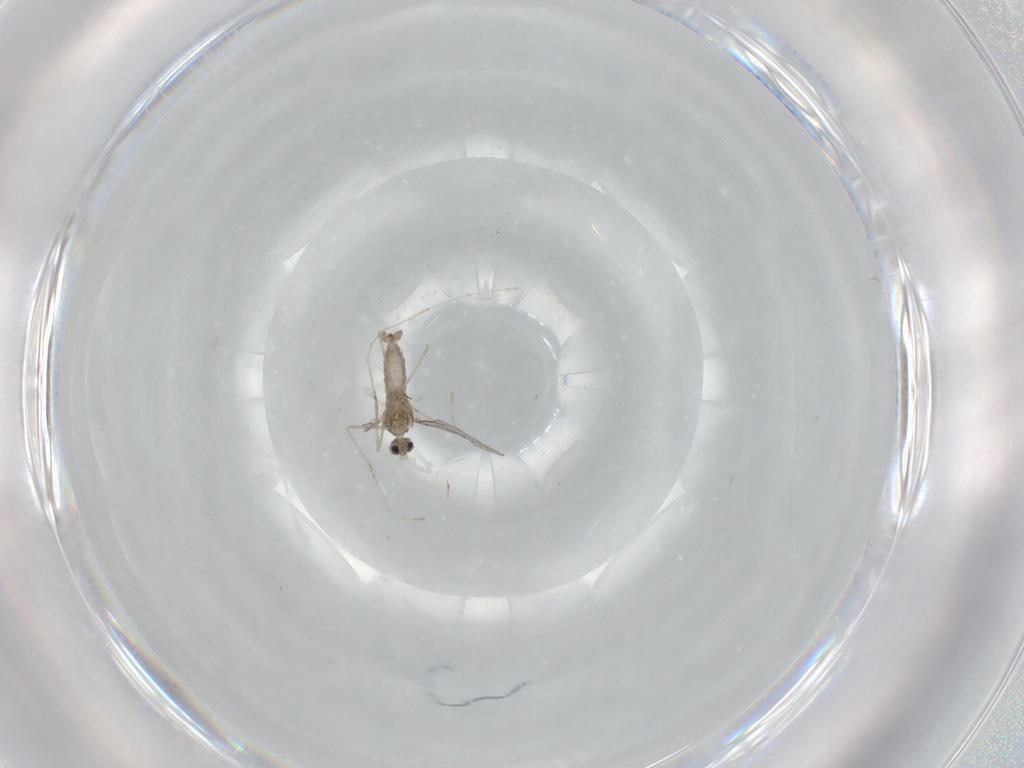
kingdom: Animalia
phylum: Arthropoda
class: Insecta
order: Diptera
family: Cecidomyiidae
